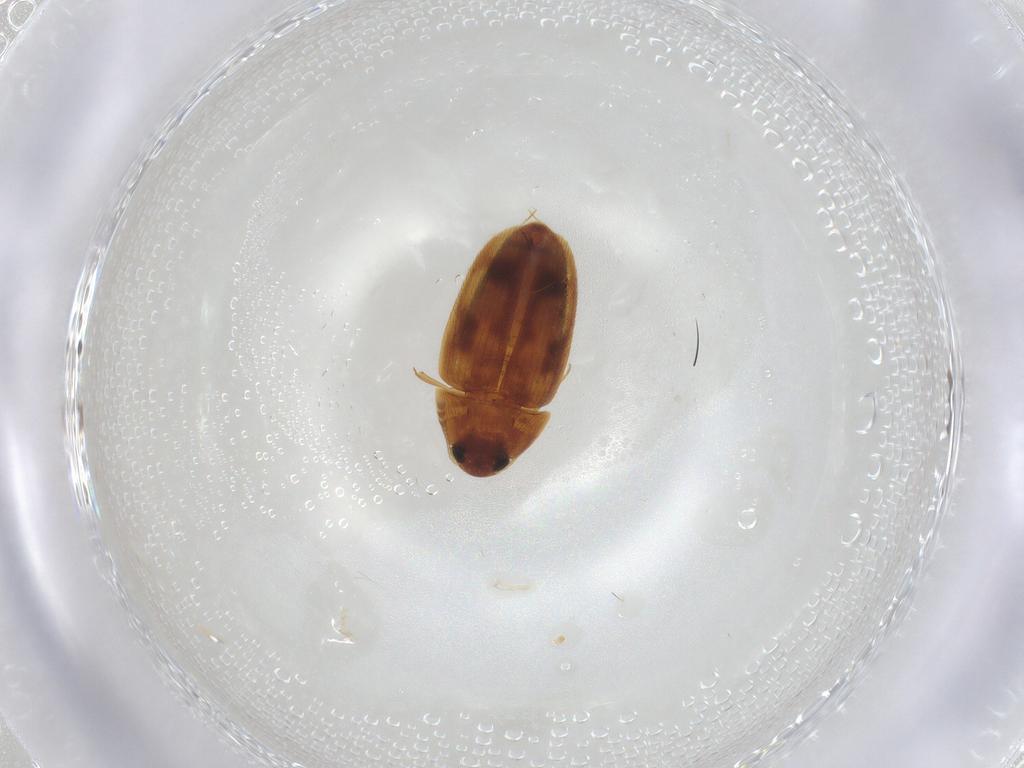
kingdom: Animalia
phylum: Arthropoda
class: Insecta
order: Coleoptera
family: Mycetophagidae
